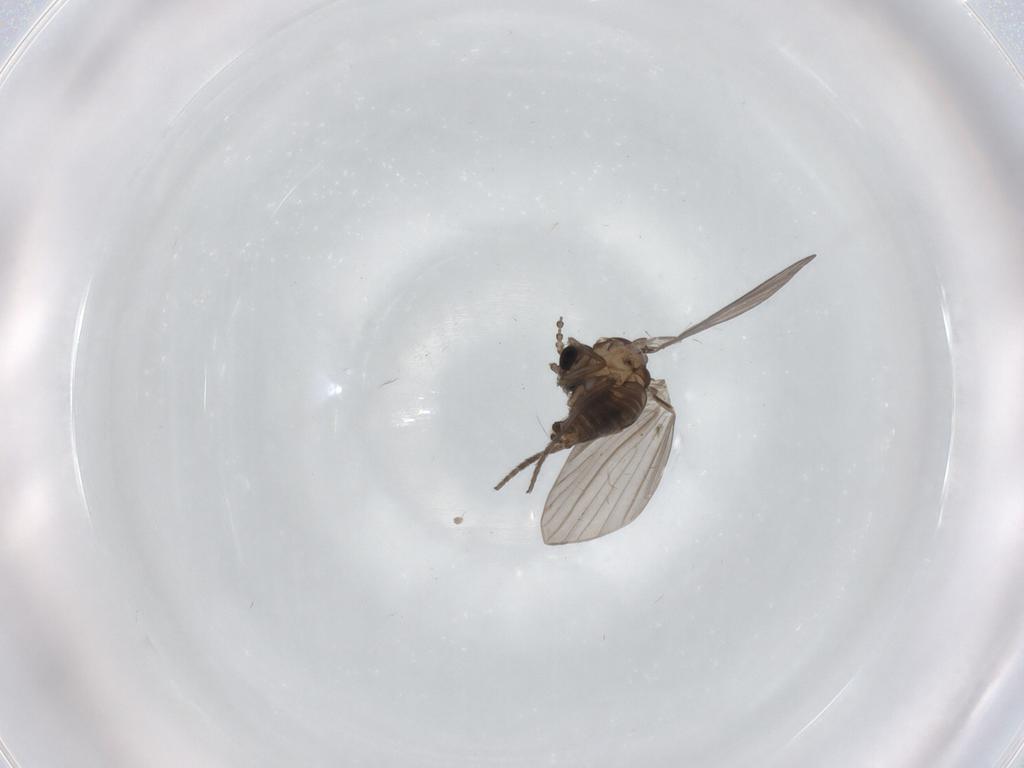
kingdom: Animalia
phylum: Arthropoda
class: Insecta
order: Diptera
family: Psychodidae
